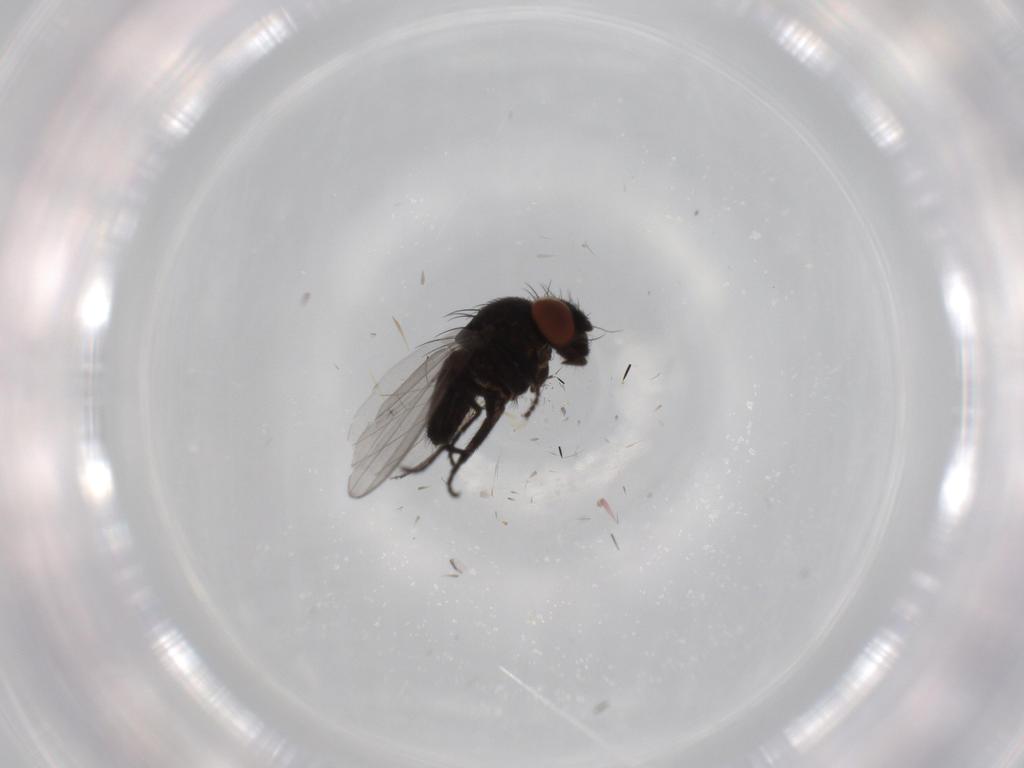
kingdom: Animalia
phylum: Arthropoda
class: Insecta
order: Diptera
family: Milichiidae
